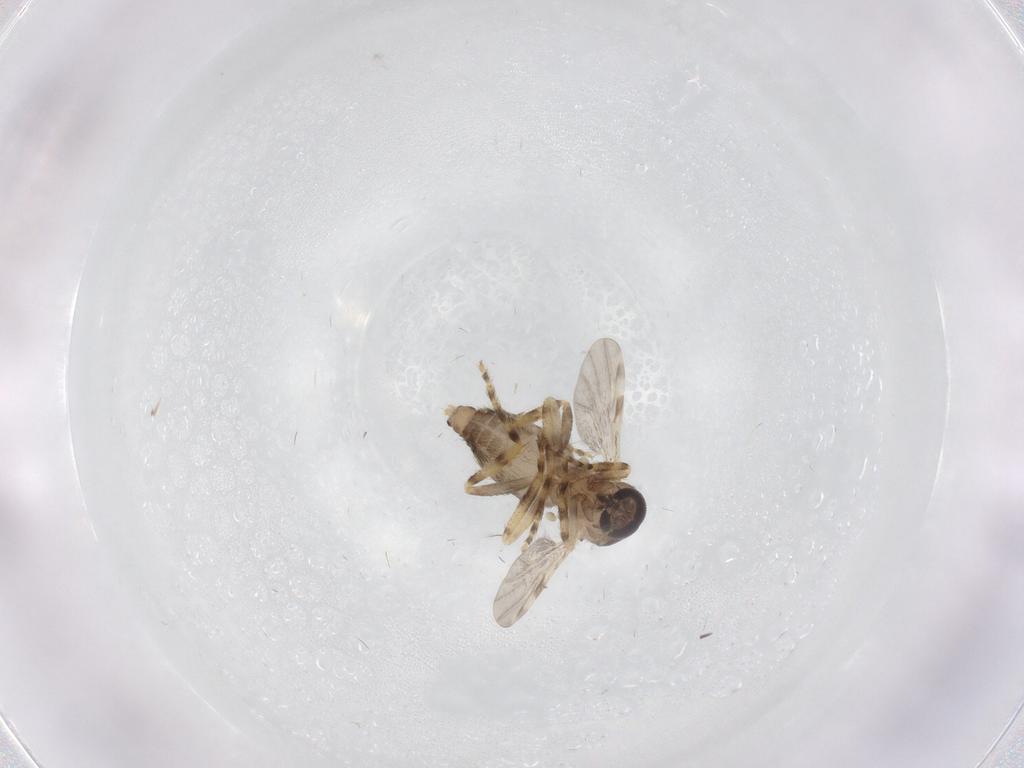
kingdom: Animalia
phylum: Arthropoda
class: Insecta
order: Diptera
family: Ceratopogonidae
